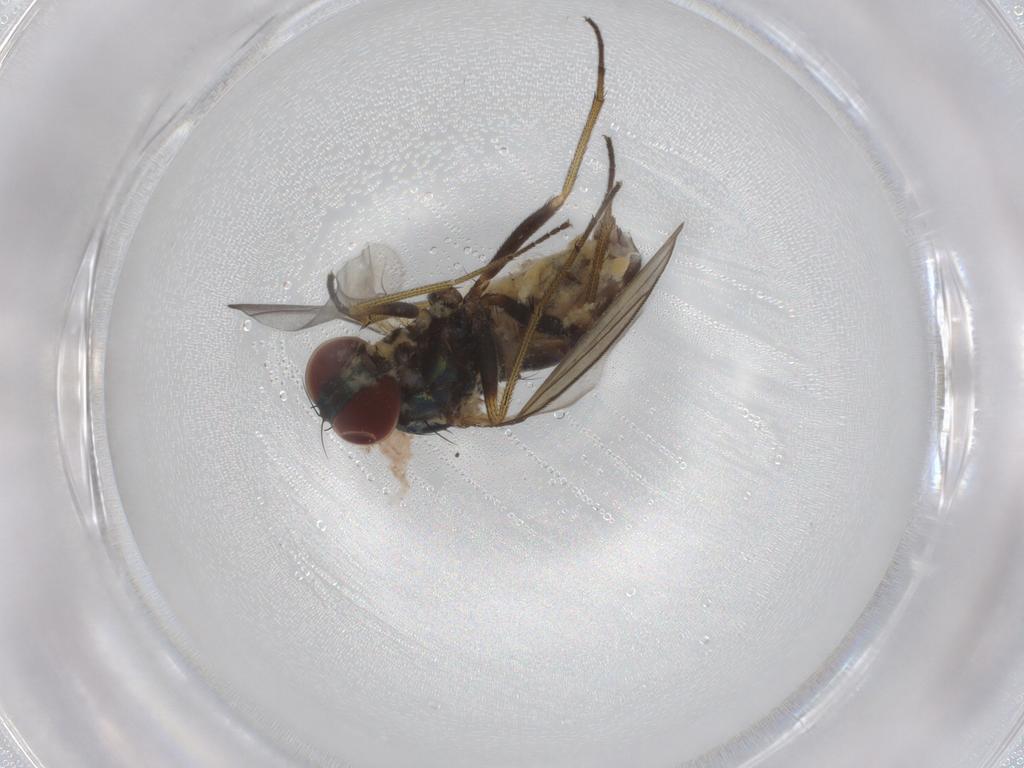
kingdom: Animalia
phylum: Arthropoda
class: Insecta
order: Diptera
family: Dolichopodidae
